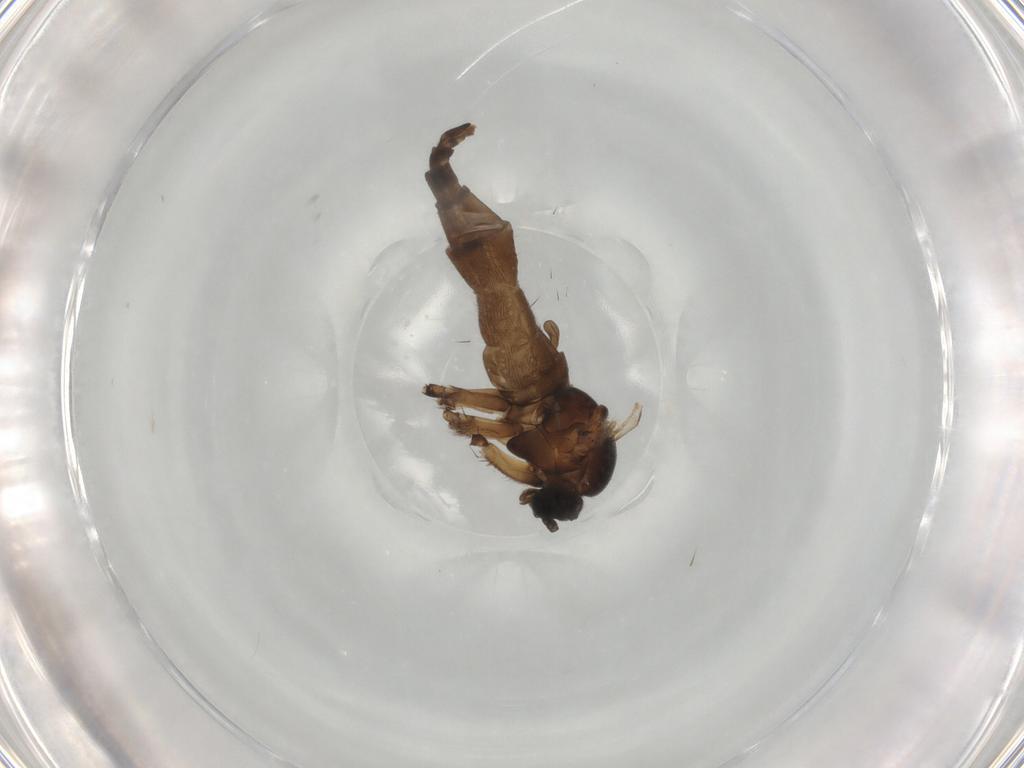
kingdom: Animalia
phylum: Arthropoda
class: Insecta
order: Diptera
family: Sciaridae
